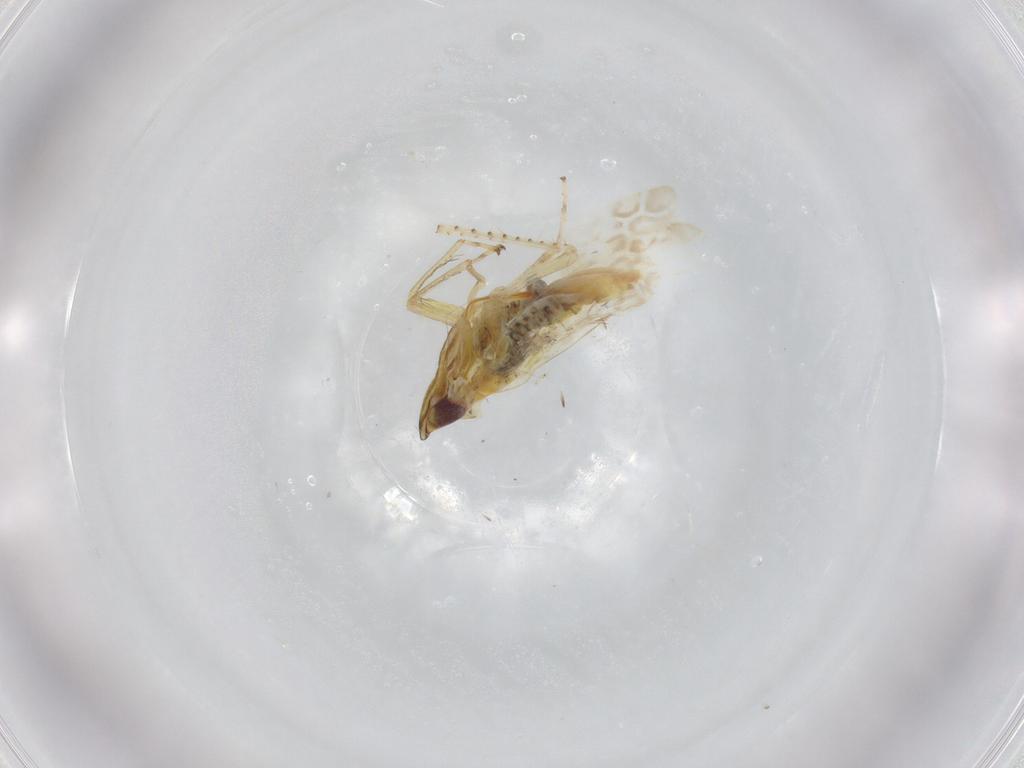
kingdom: Animalia
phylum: Arthropoda
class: Insecta
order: Hemiptera
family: Cicadellidae
